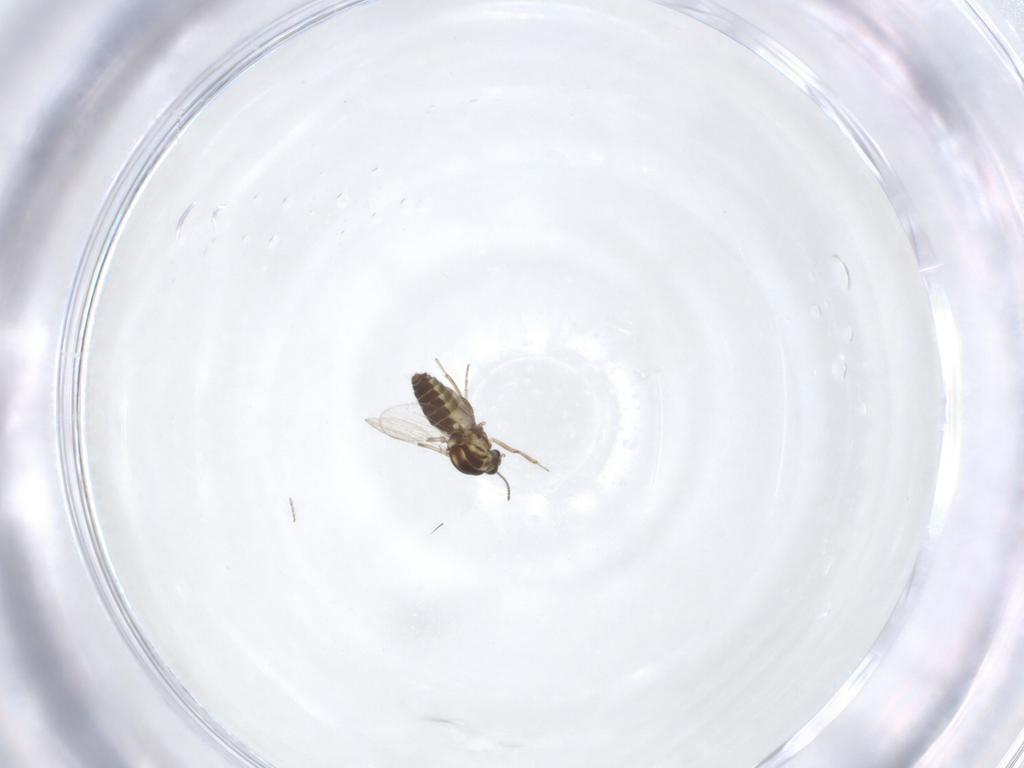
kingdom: Animalia
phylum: Arthropoda
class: Insecta
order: Diptera
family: Ceratopogonidae
